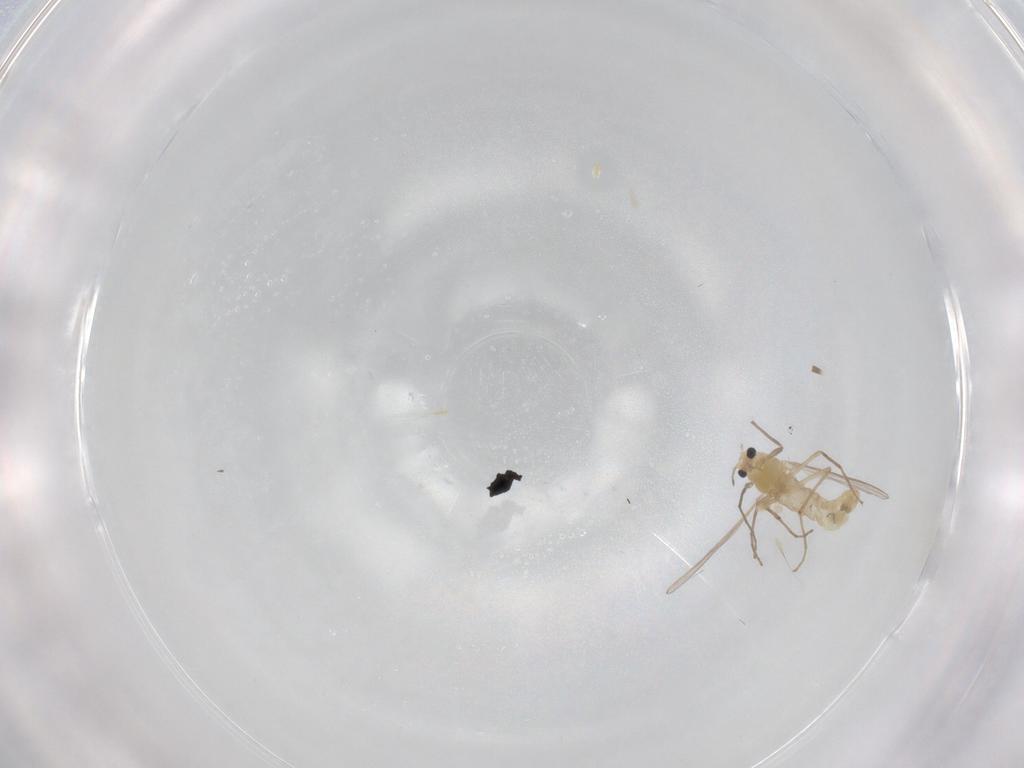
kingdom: Animalia
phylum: Arthropoda
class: Insecta
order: Diptera
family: Chironomidae
